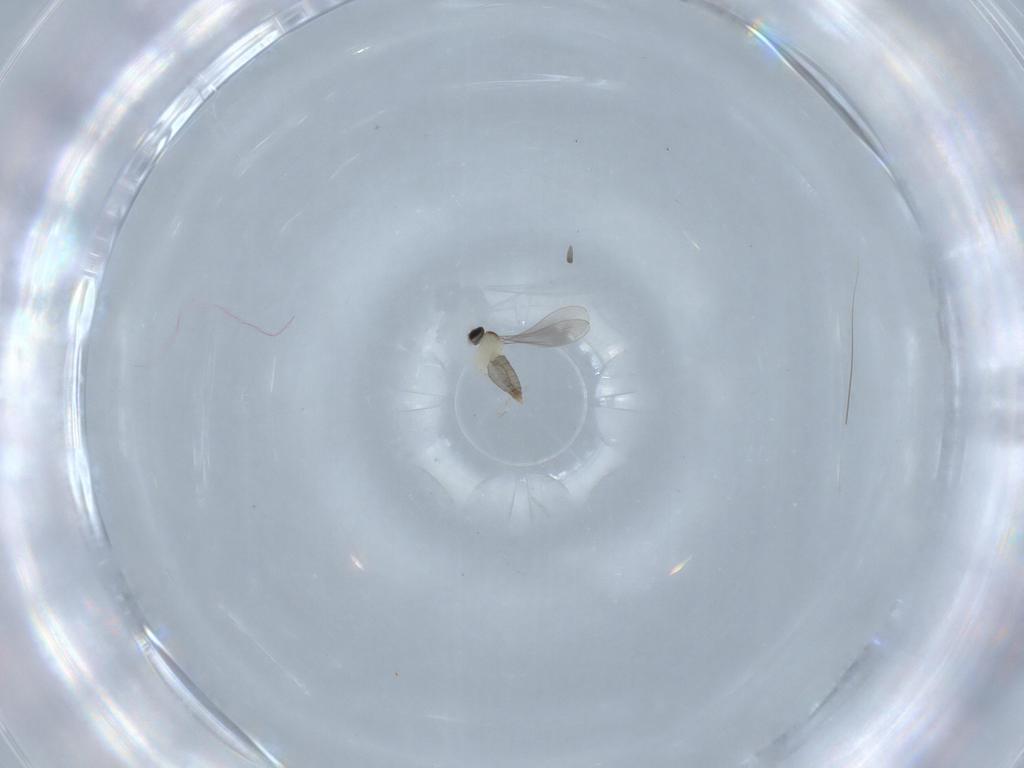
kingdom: Animalia
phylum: Arthropoda
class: Insecta
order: Diptera
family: Cecidomyiidae
